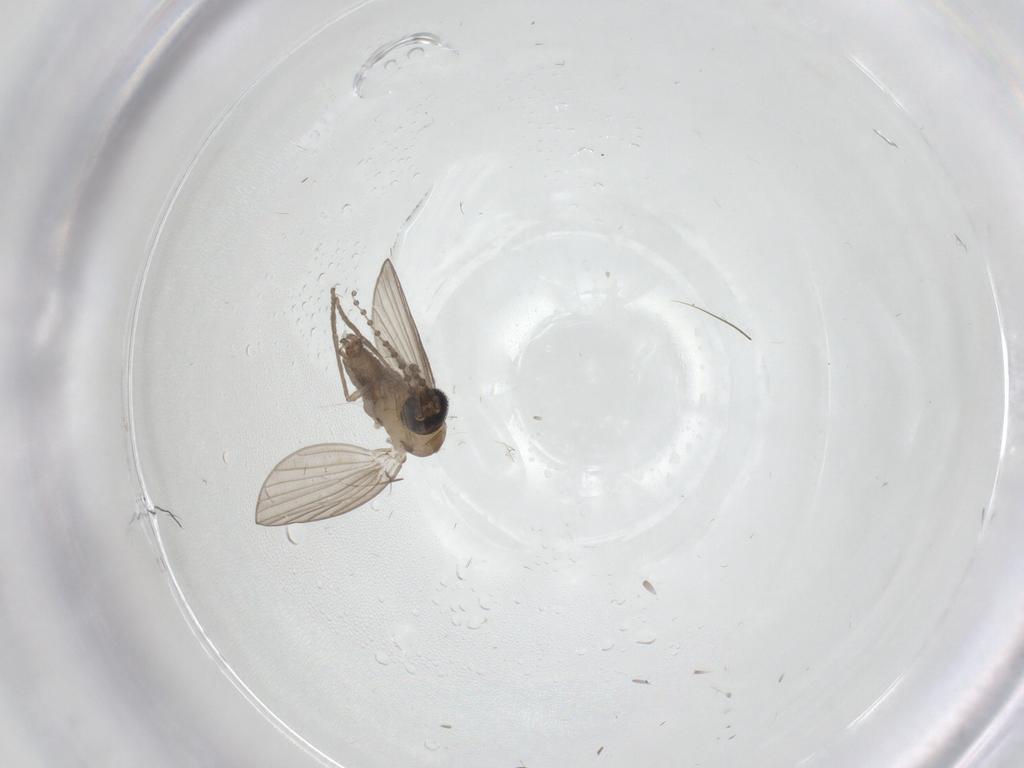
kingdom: Animalia
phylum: Arthropoda
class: Insecta
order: Diptera
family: Psychodidae
